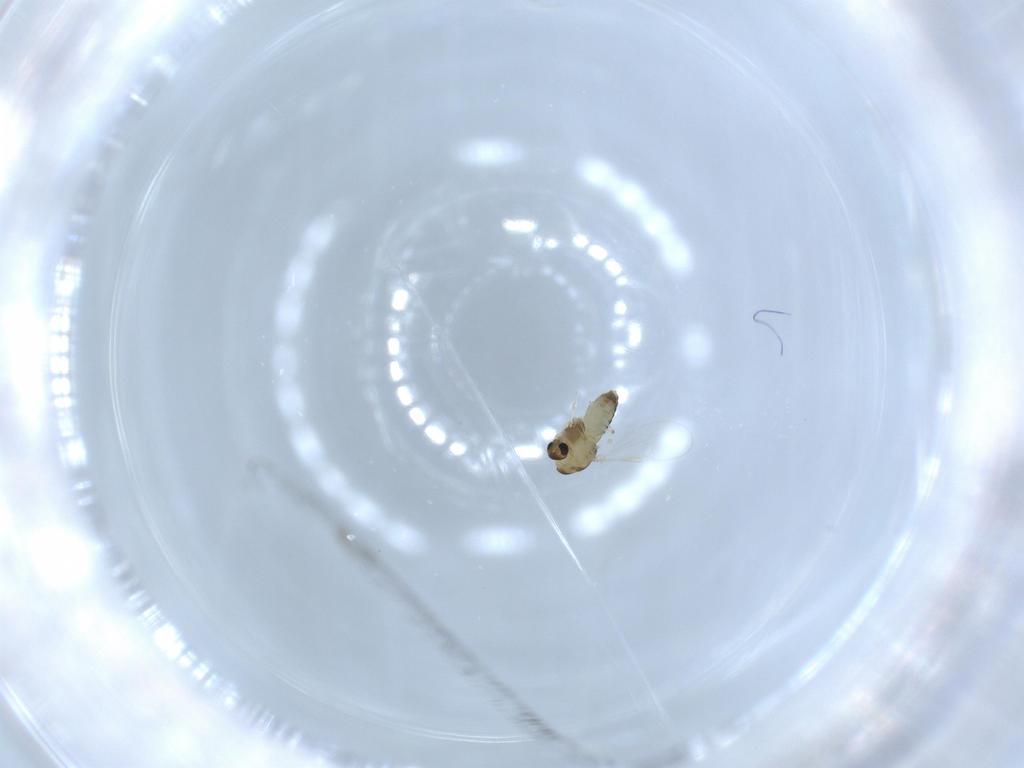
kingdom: Animalia
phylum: Arthropoda
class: Insecta
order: Diptera
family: Chironomidae
